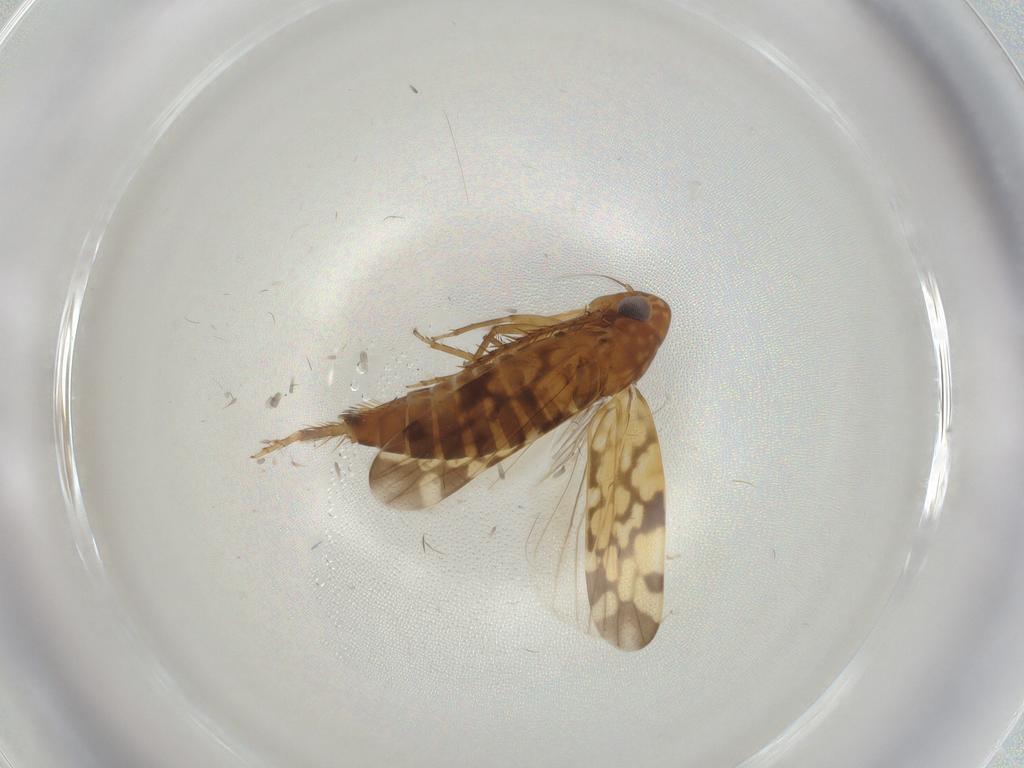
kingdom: Animalia
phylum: Arthropoda
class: Insecta
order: Hemiptera
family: Cicadellidae
